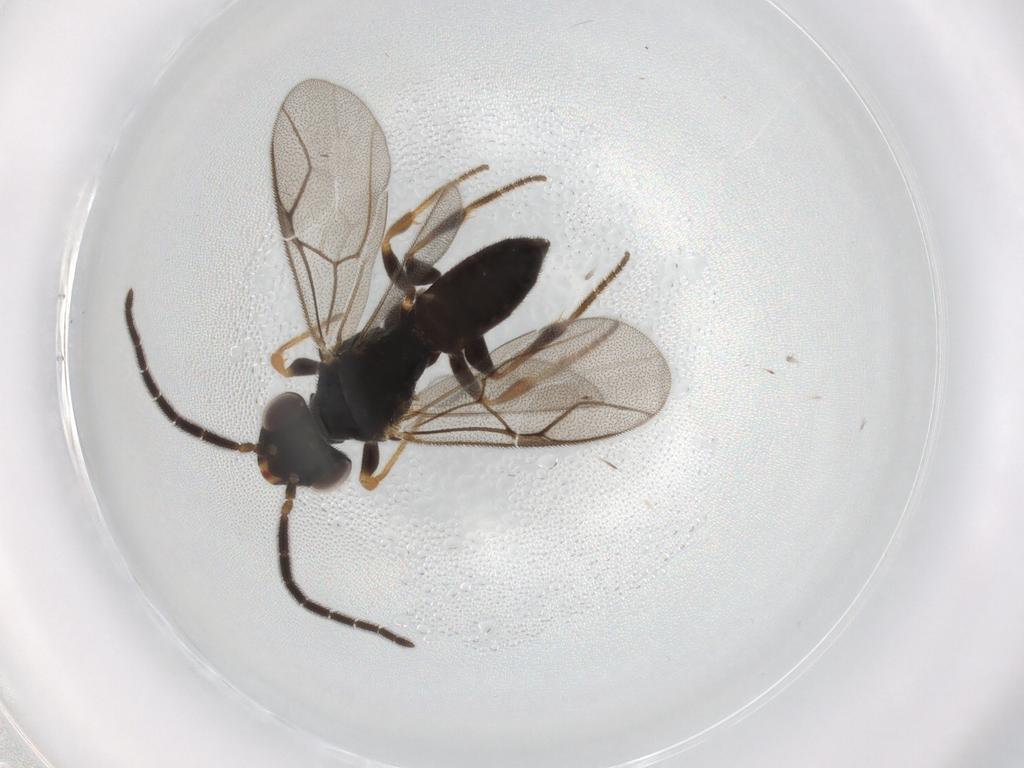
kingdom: Animalia
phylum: Arthropoda
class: Insecta
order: Hymenoptera
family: Dryinidae
